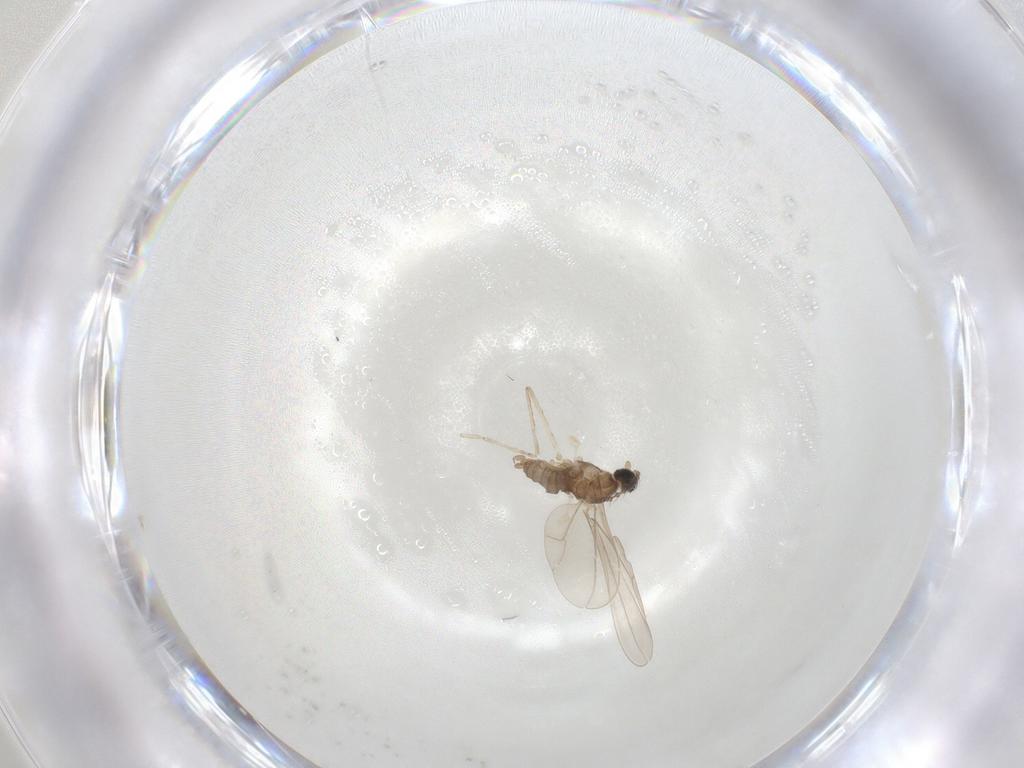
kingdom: Animalia
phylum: Arthropoda
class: Insecta
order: Diptera
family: Cecidomyiidae
